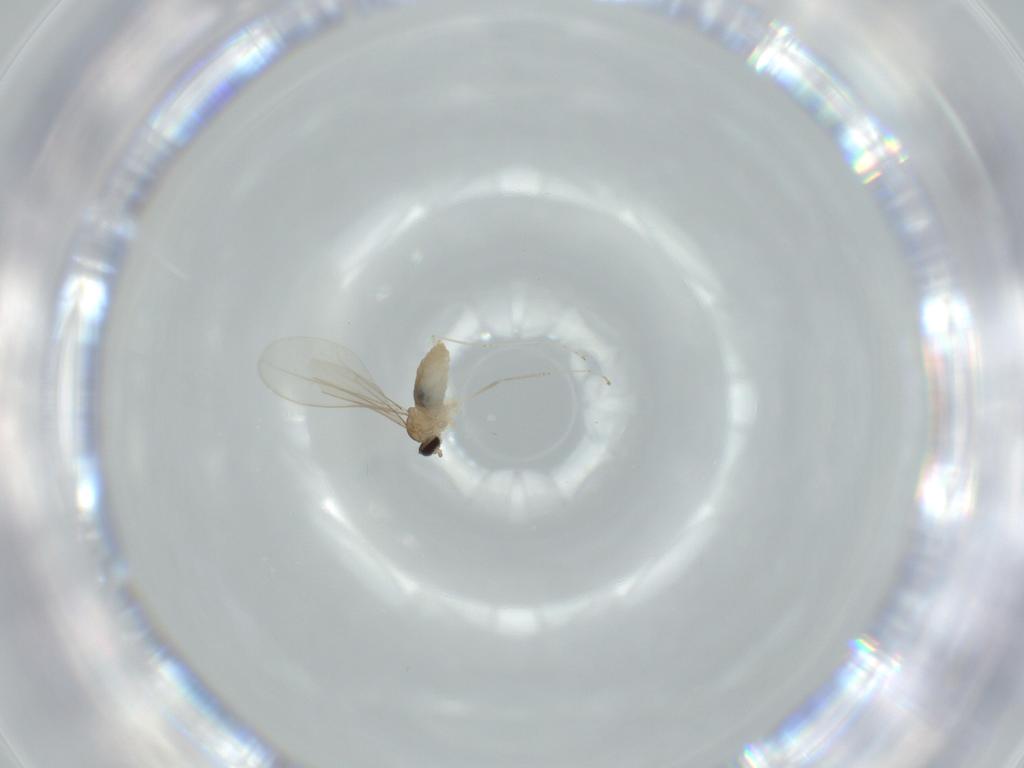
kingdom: Animalia
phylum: Arthropoda
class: Insecta
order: Diptera
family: Cecidomyiidae
